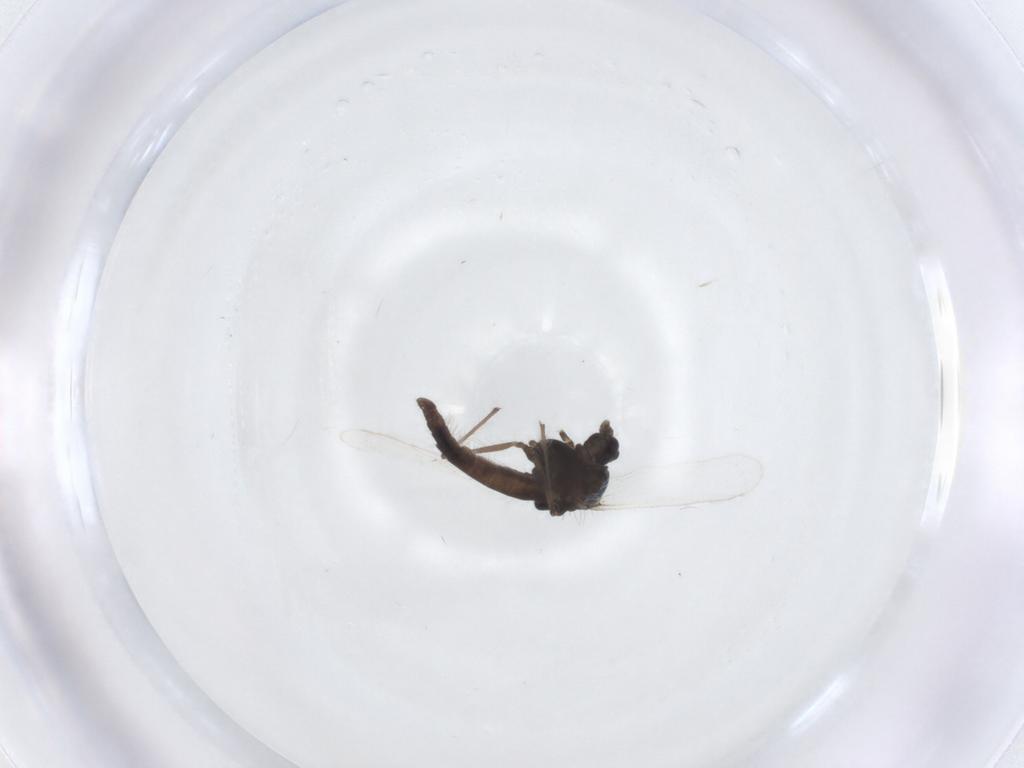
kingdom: Animalia
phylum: Arthropoda
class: Insecta
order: Diptera
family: Chironomidae
